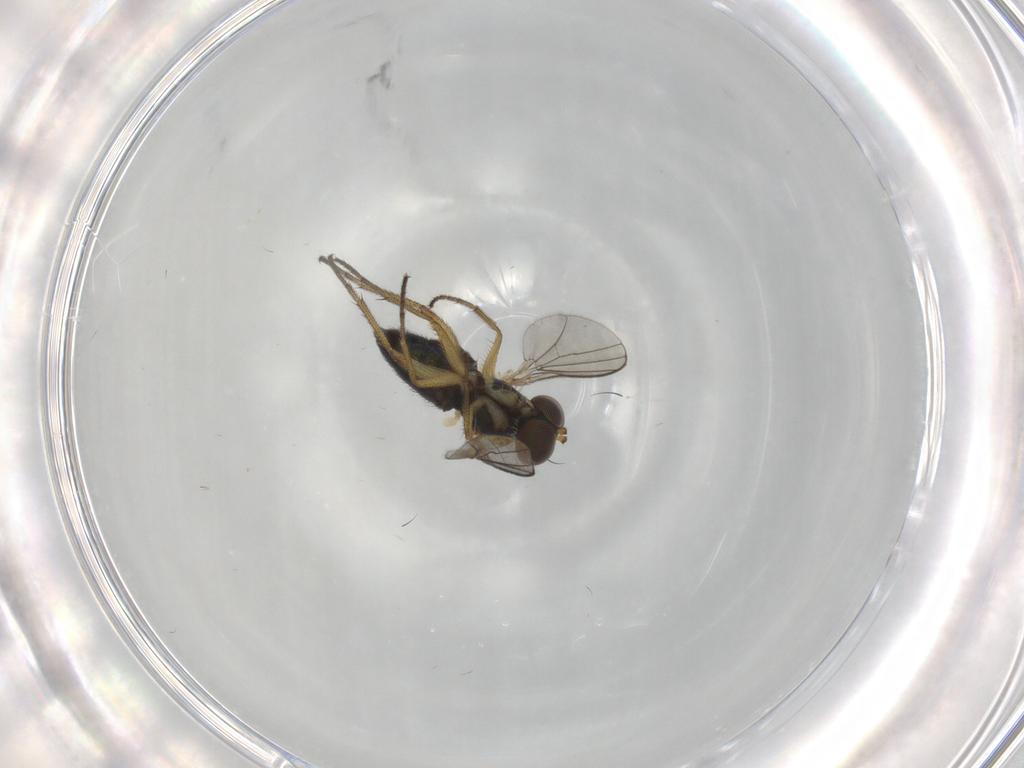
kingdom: Animalia
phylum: Arthropoda
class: Insecta
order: Diptera
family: Dolichopodidae
